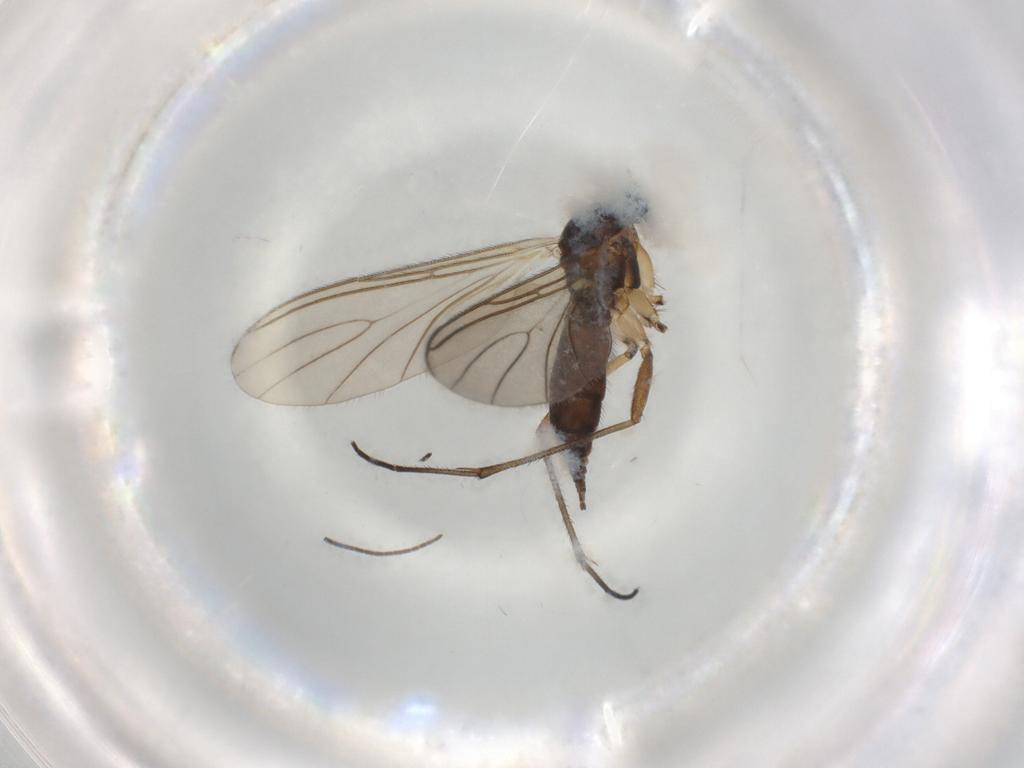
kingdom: Animalia
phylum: Arthropoda
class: Insecta
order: Diptera
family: Sciaridae
